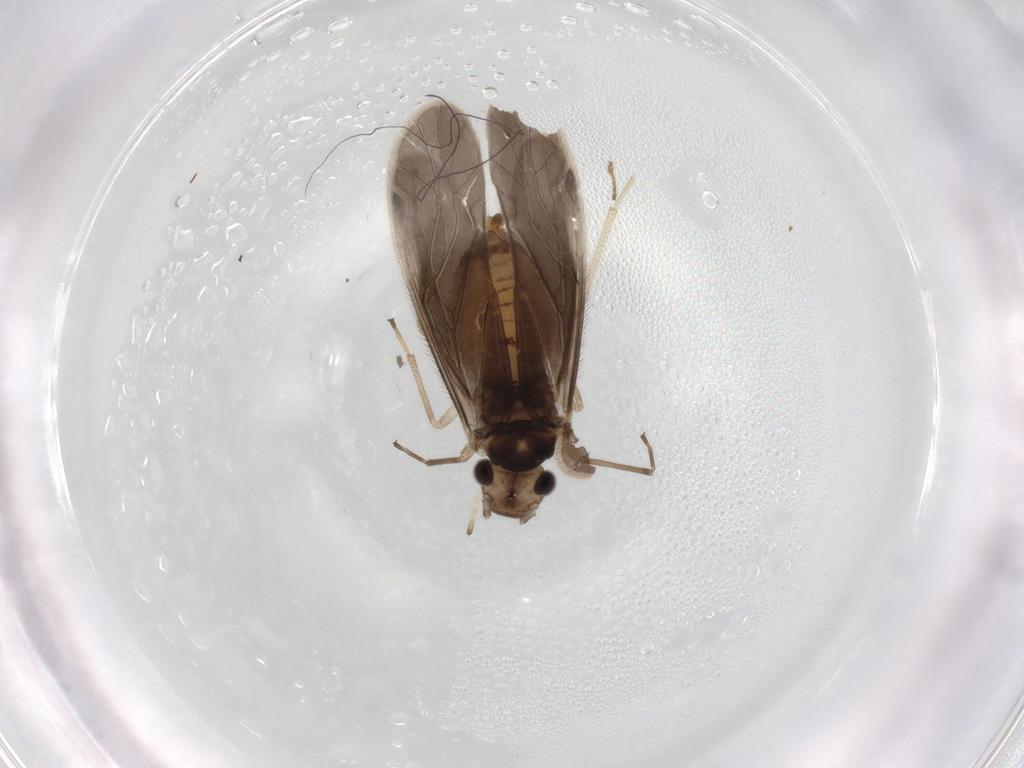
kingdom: Animalia
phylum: Arthropoda
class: Insecta
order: Psocodea
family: Caeciliusidae
